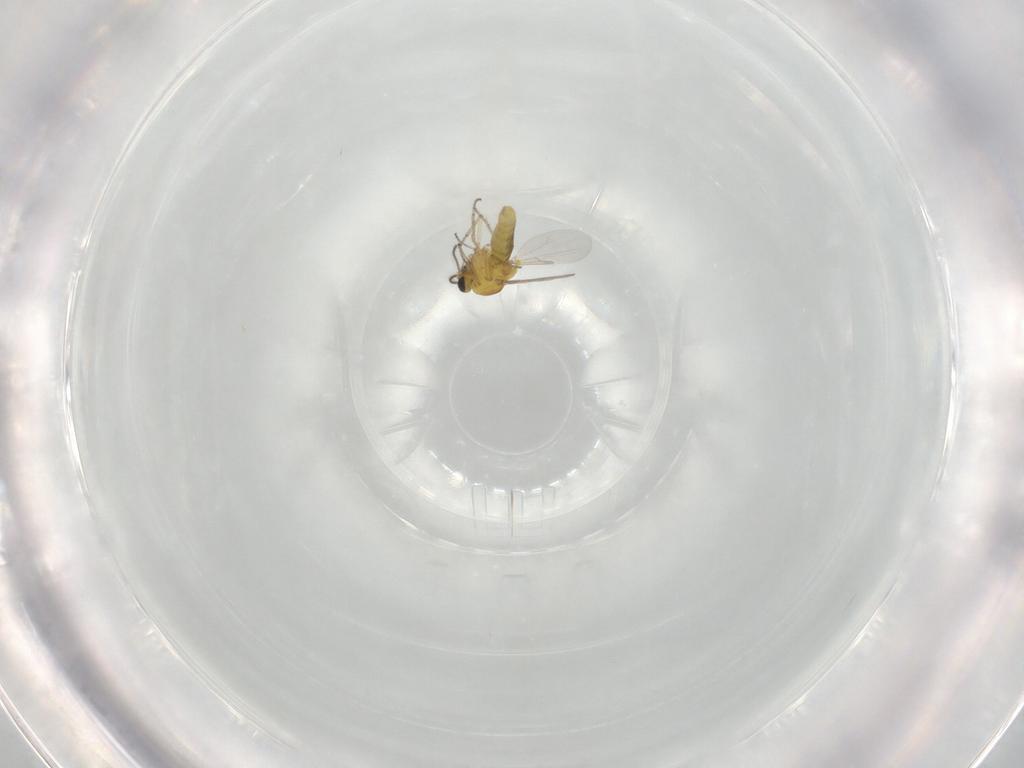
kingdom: Animalia
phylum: Arthropoda
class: Insecta
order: Diptera
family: Ceratopogonidae
